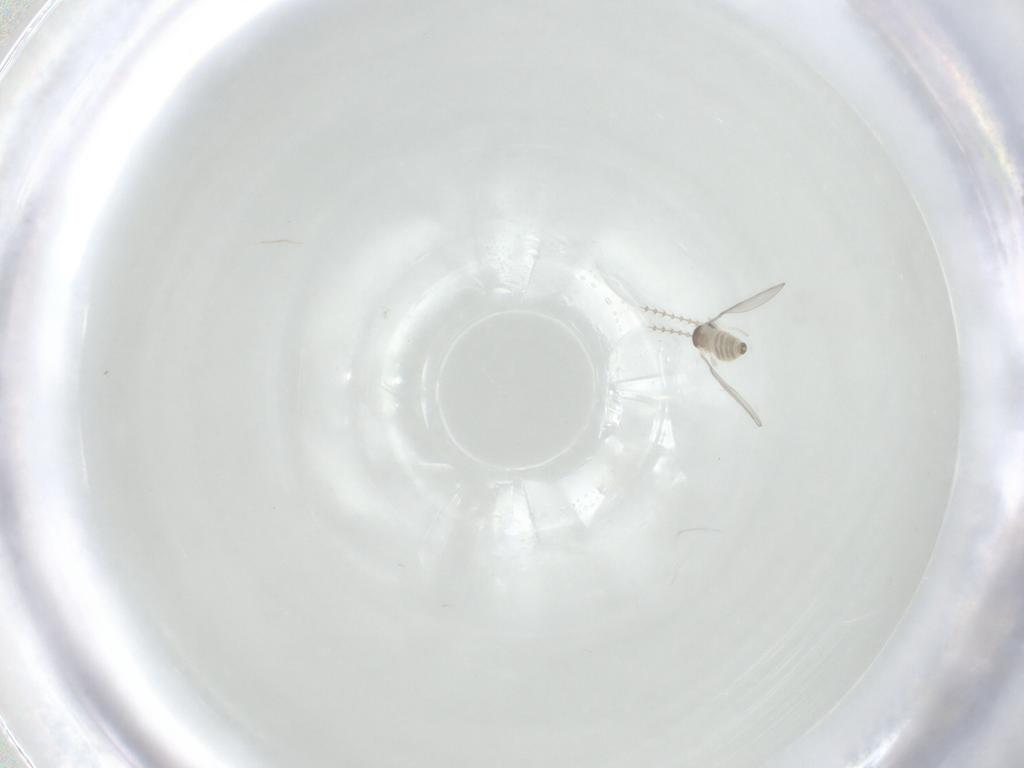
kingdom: Animalia
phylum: Arthropoda
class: Insecta
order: Diptera
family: Cecidomyiidae
